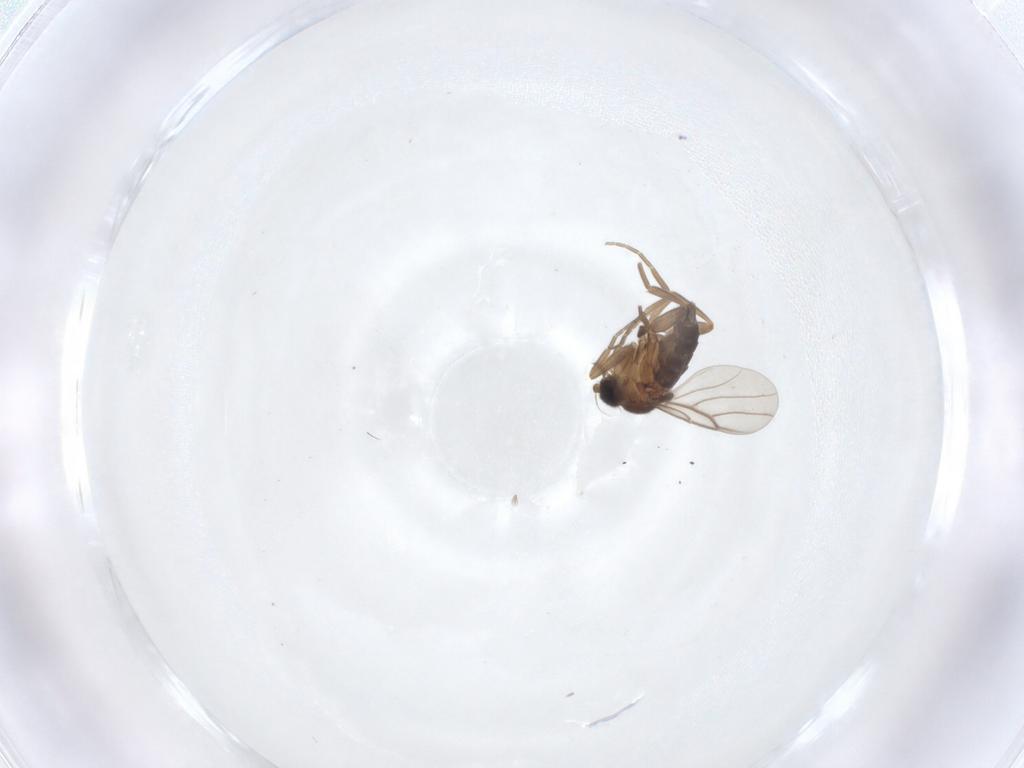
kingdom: Animalia
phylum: Arthropoda
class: Insecta
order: Diptera
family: Phoridae
